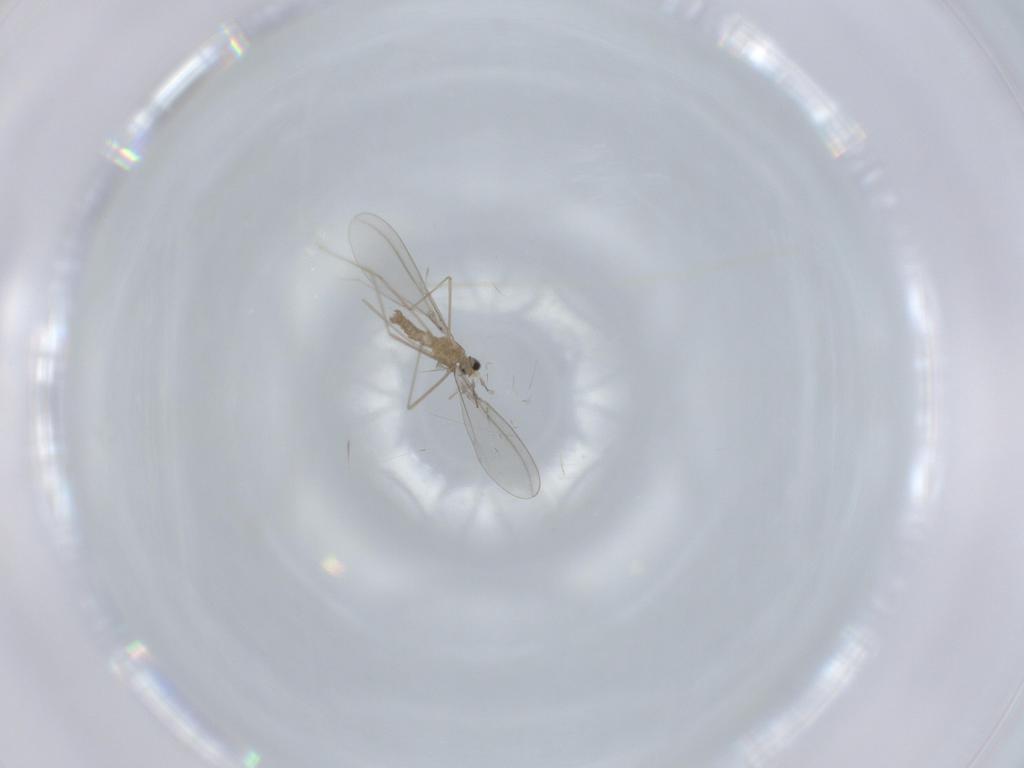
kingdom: Animalia
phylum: Arthropoda
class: Insecta
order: Diptera
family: Cecidomyiidae
